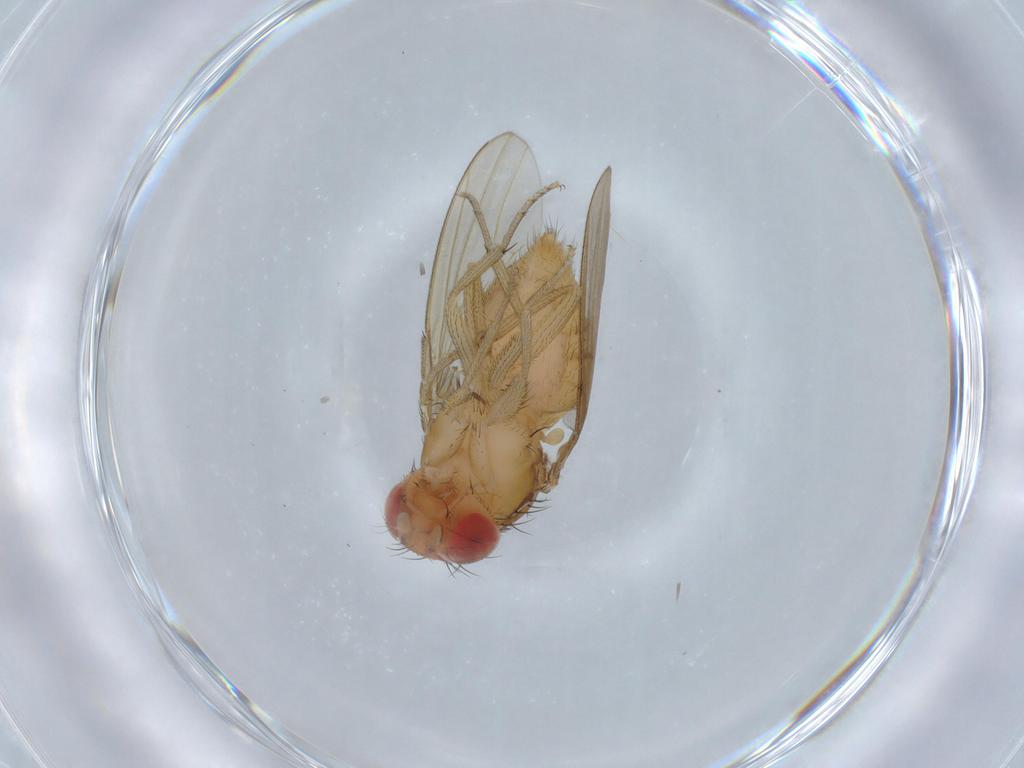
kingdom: Animalia
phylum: Arthropoda
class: Insecta
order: Diptera
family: Drosophilidae
